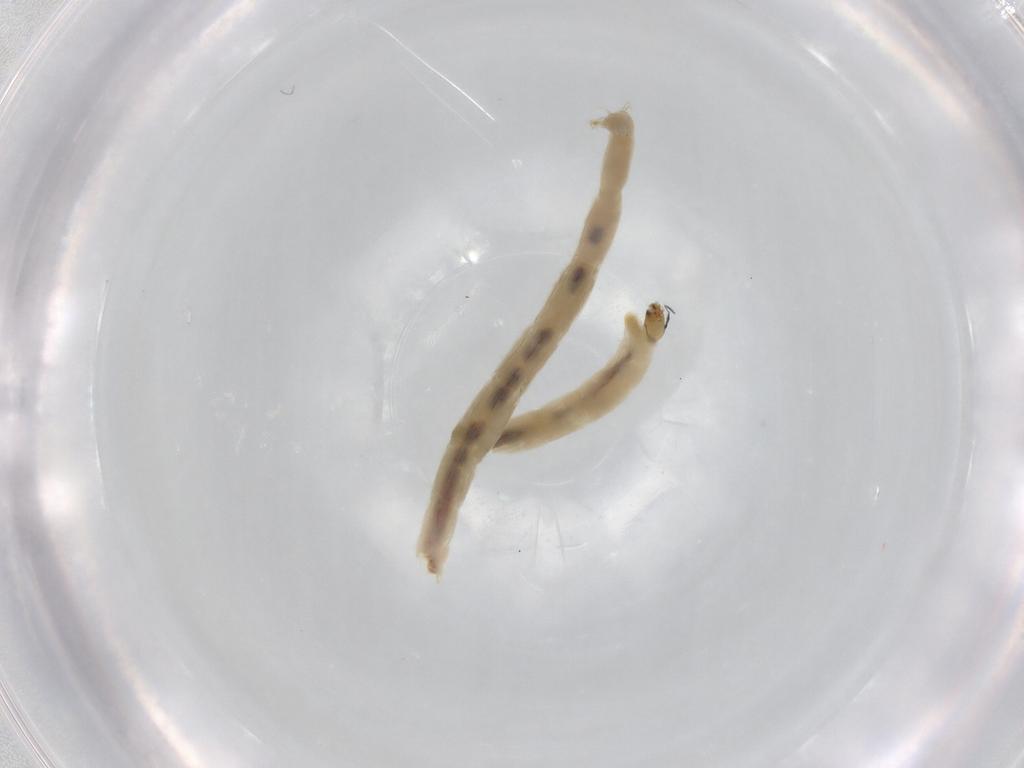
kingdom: Animalia
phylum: Arthropoda
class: Insecta
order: Diptera
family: Chironomidae
